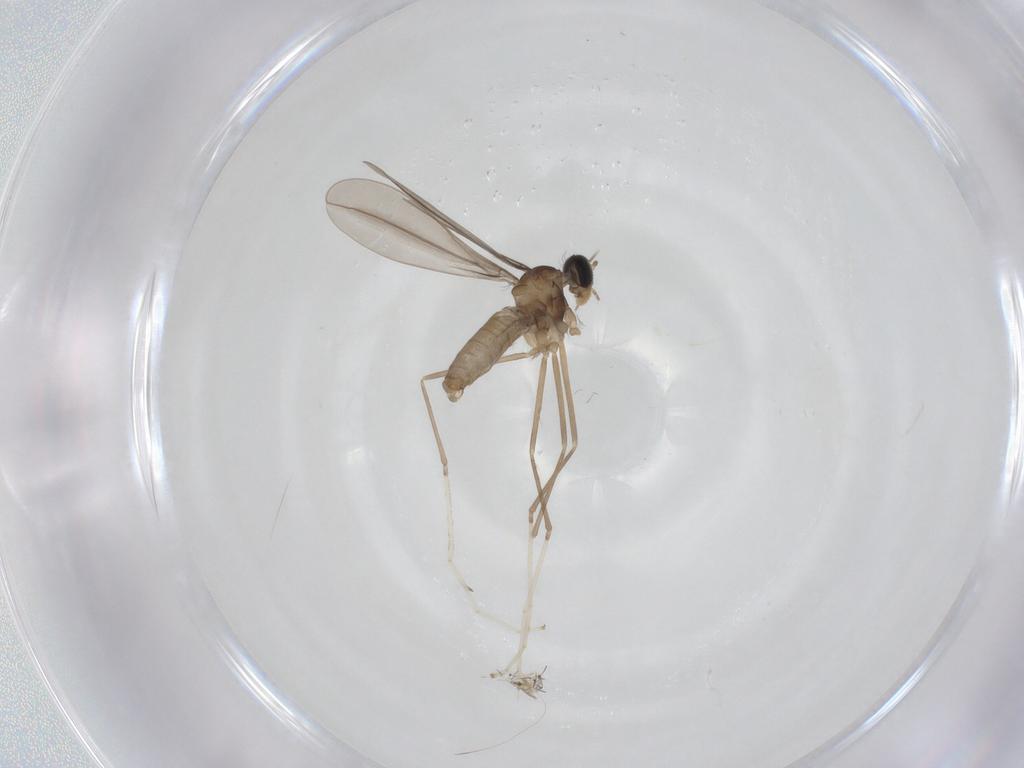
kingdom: Animalia
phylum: Arthropoda
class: Insecta
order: Diptera
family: Cecidomyiidae
